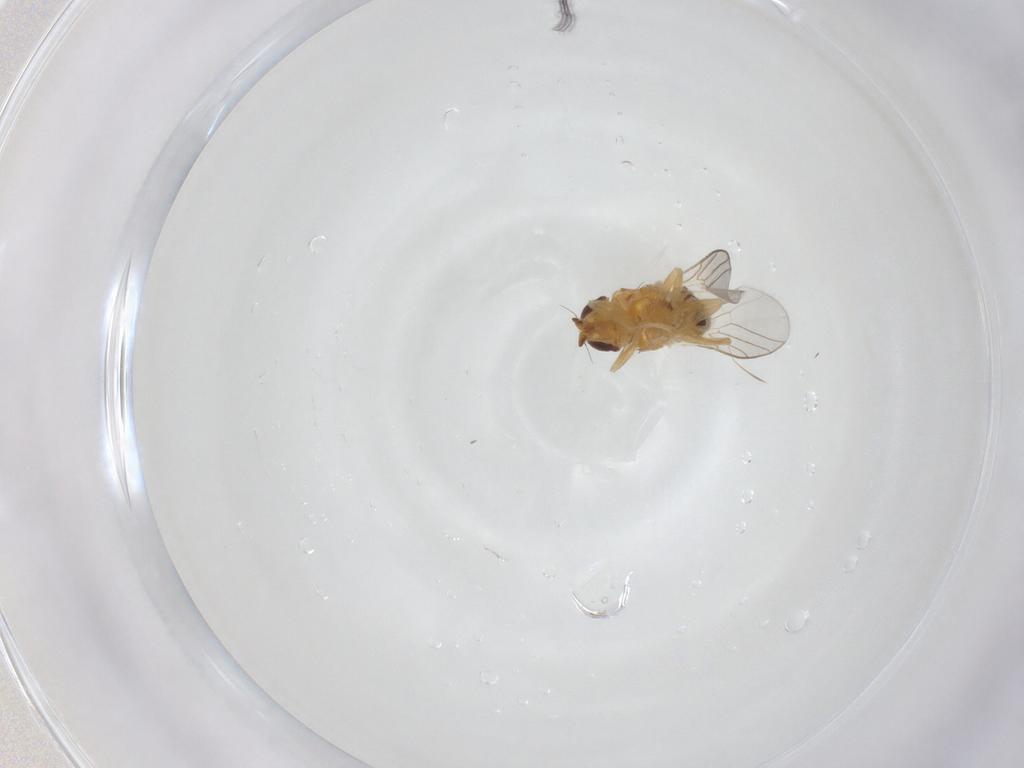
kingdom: Animalia
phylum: Arthropoda
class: Insecta
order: Diptera
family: Chloropidae
